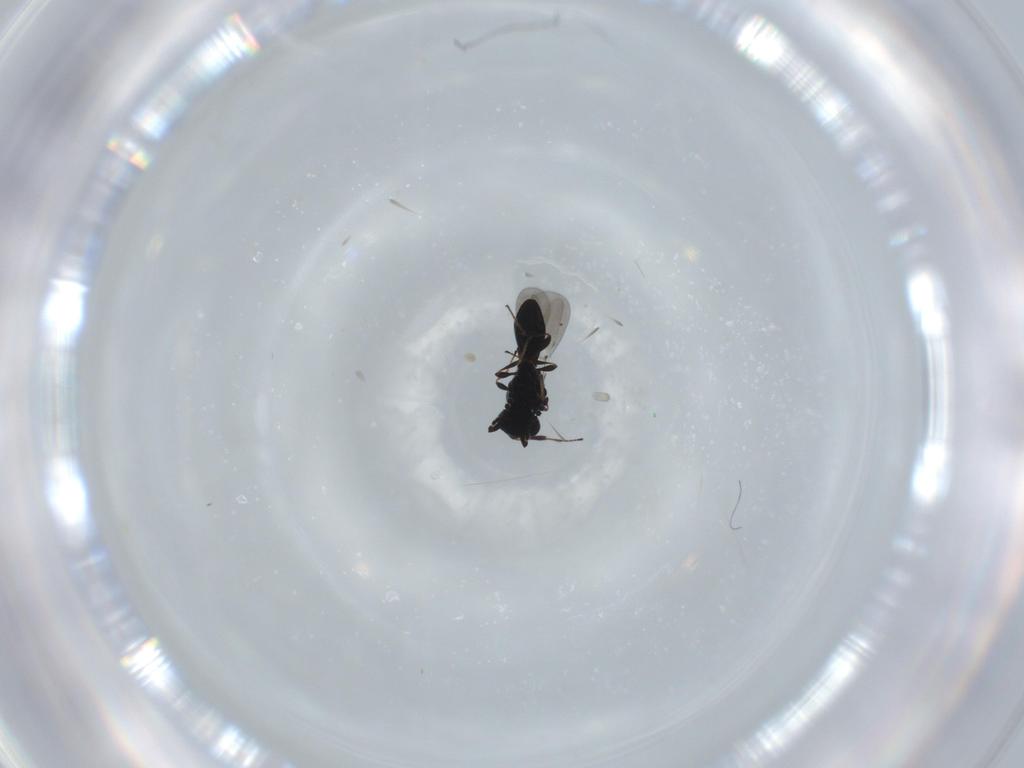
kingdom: Animalia
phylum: Arthropoda
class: Insecta
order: Hymenoptera
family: Platygastridae
